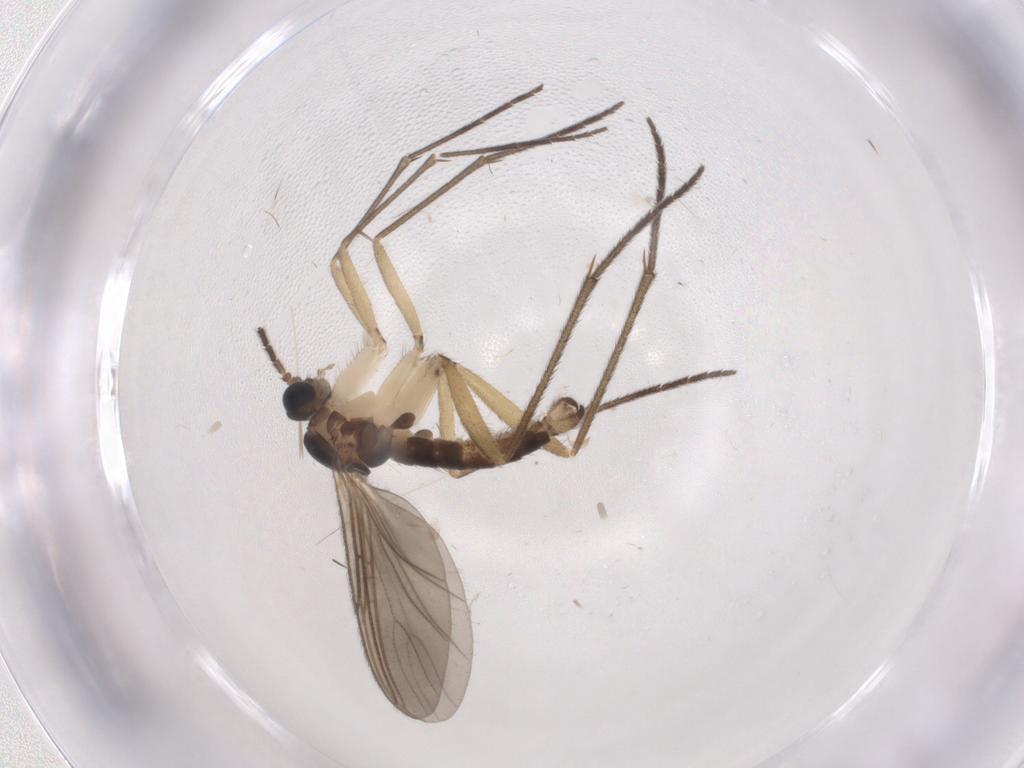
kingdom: Animalia
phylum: Arthropoda
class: Insecta
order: Diptera
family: Sciaridae
